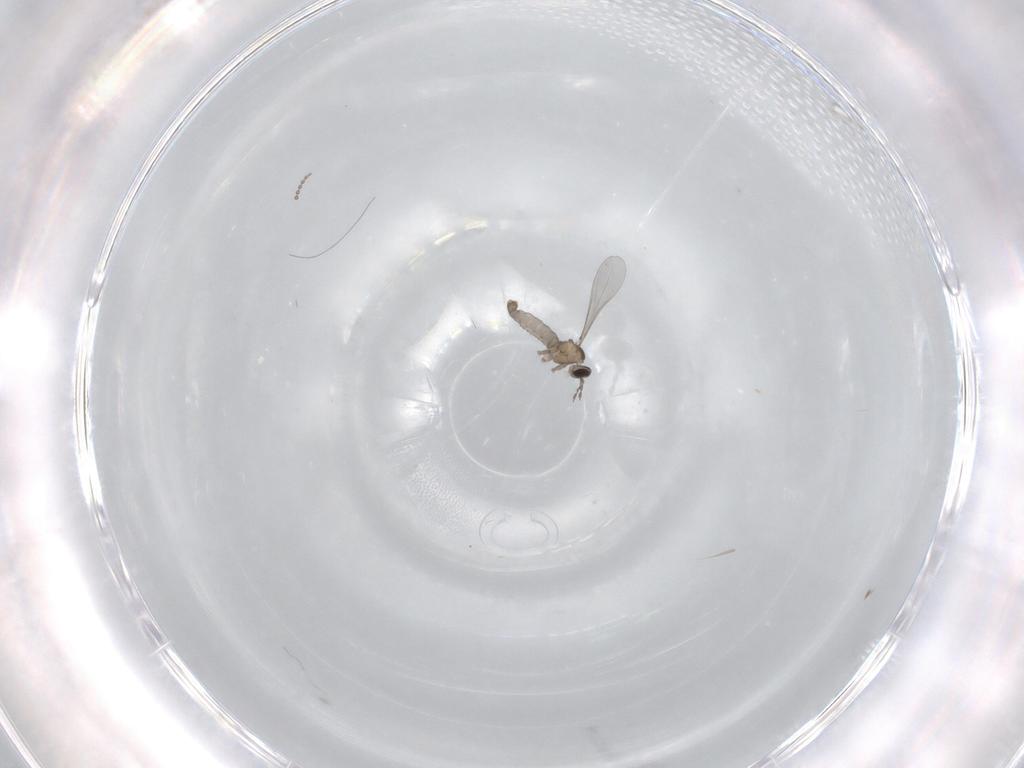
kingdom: Animalia
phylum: Arthropoda
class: Insecta
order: Diptera
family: Cecidomyiidae
